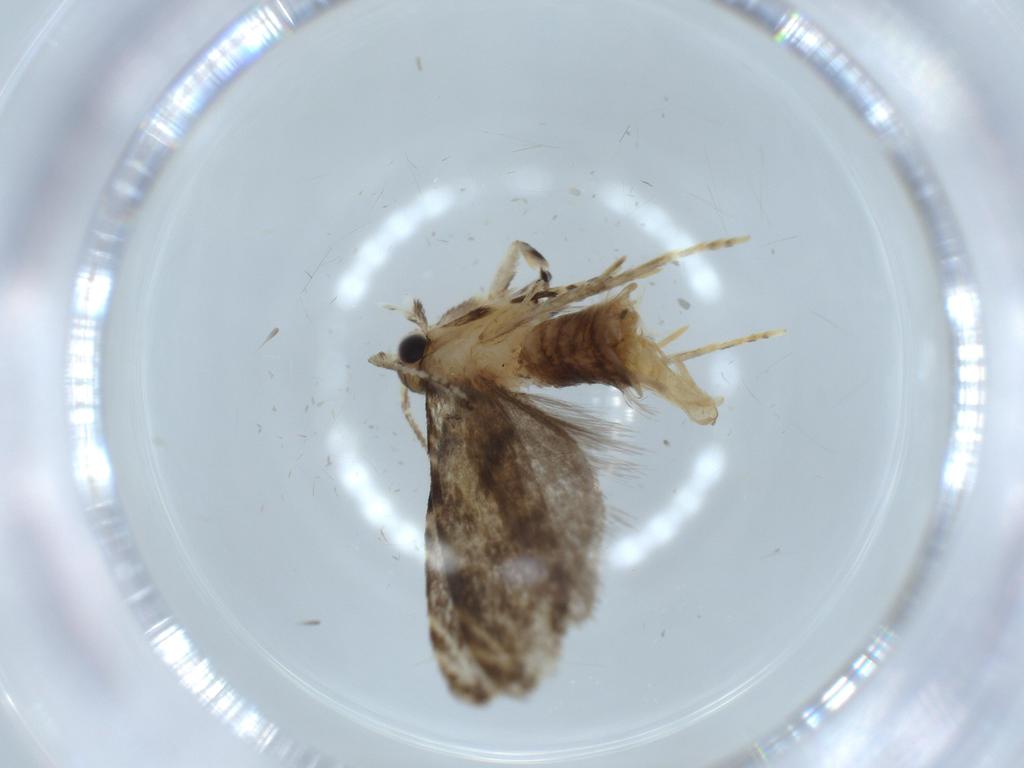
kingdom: Animalia
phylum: Arthropoda
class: Insecta
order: Lepidoptera
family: Tineidae
